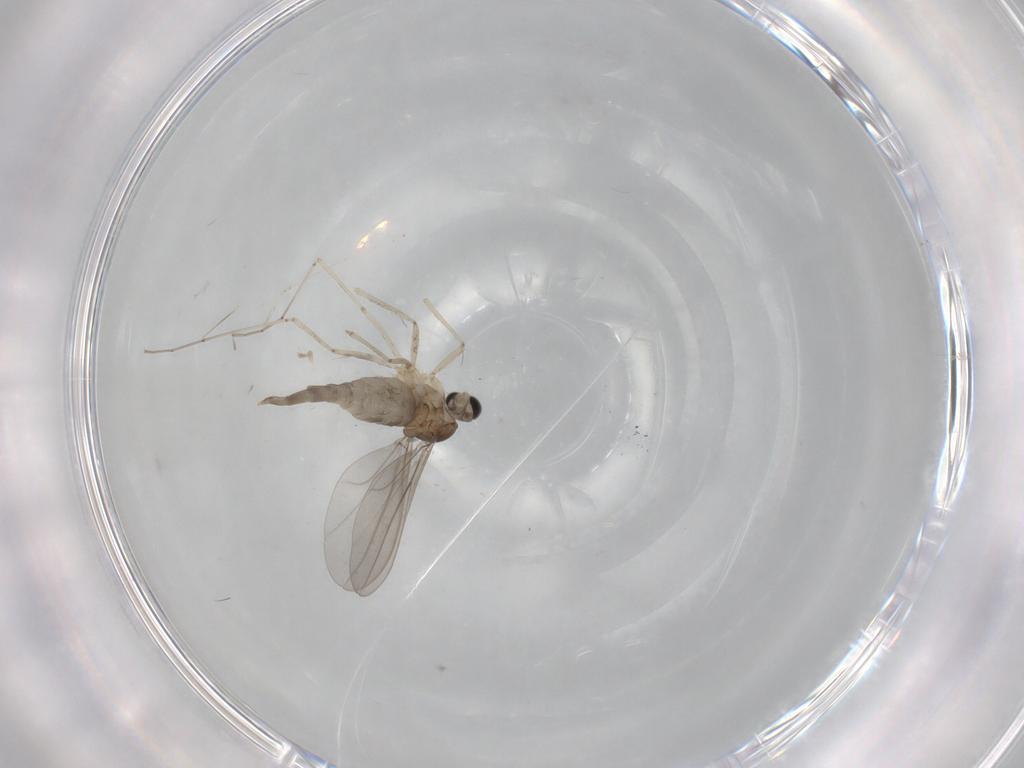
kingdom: Animalia
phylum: Arthropoda
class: Insecta
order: Diptera
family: Cecidomyiidae
